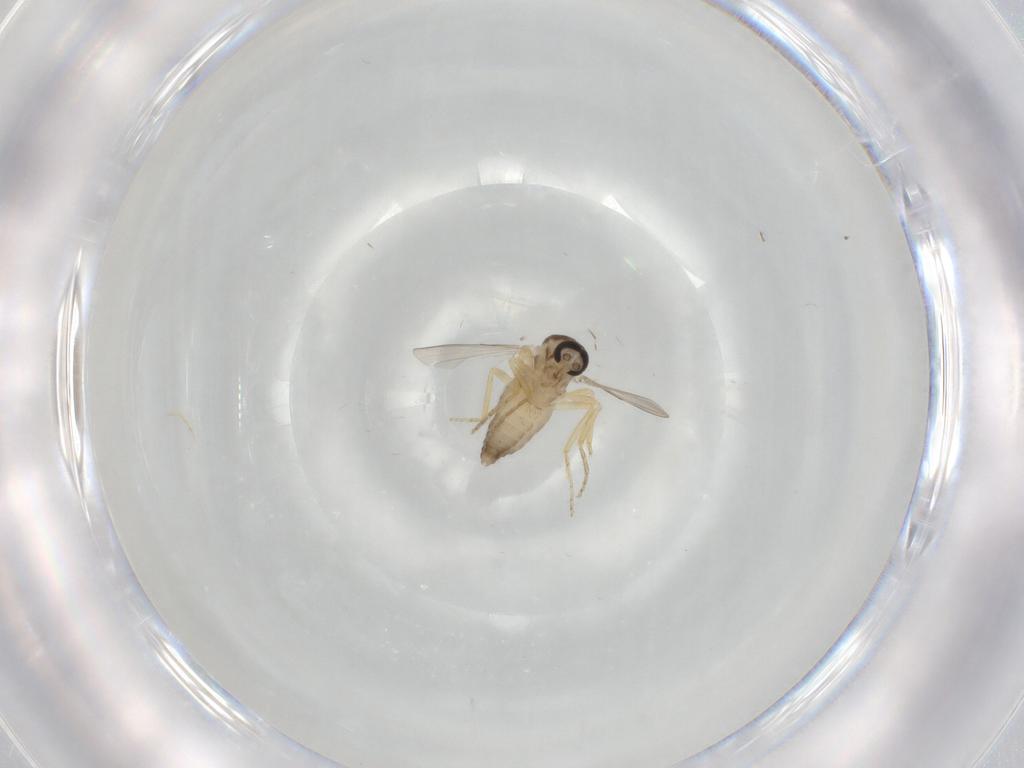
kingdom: Animalia
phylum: Arthropoda
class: Insecta
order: Diptera
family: Ceratopogonidae
